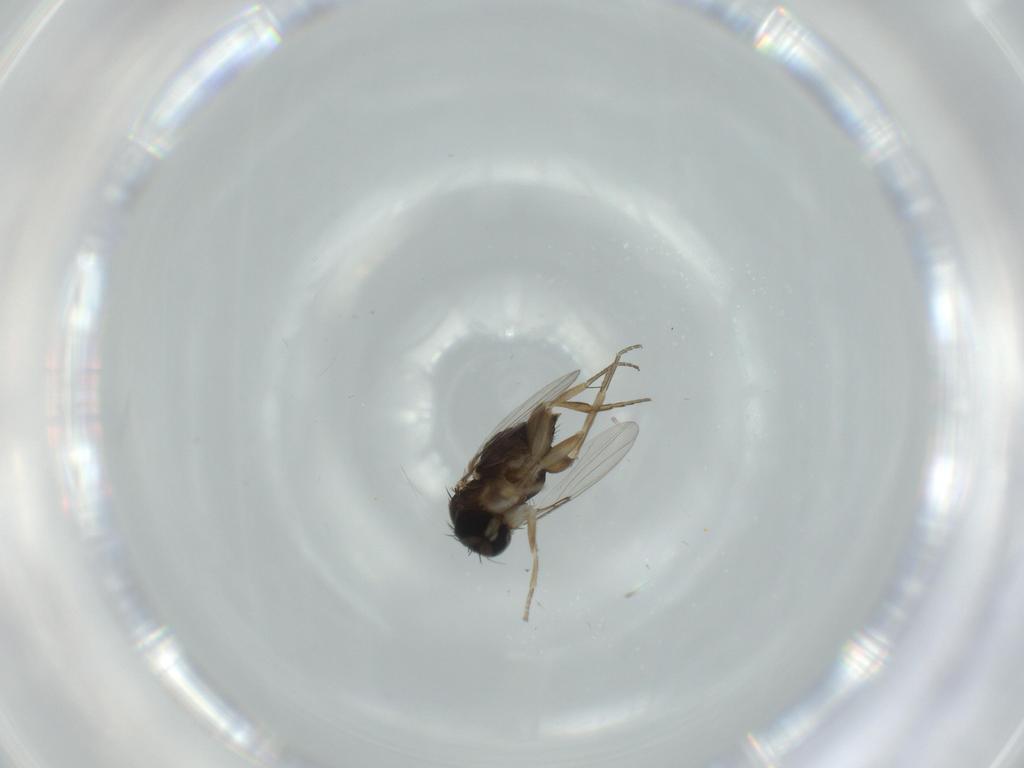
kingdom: Animalia
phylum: Arthropoda
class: Insecta
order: Diptera
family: Phoridae
